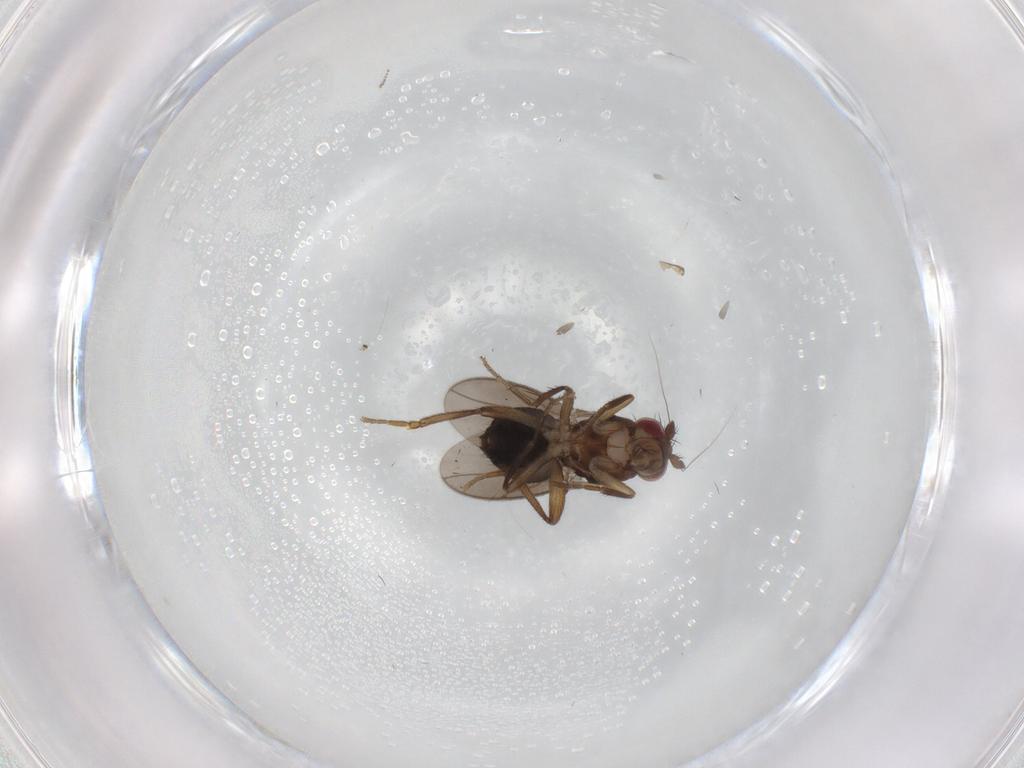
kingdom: Animalia
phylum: Arthropoda
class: Insecta
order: Diptera
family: Sphaeroceridae
